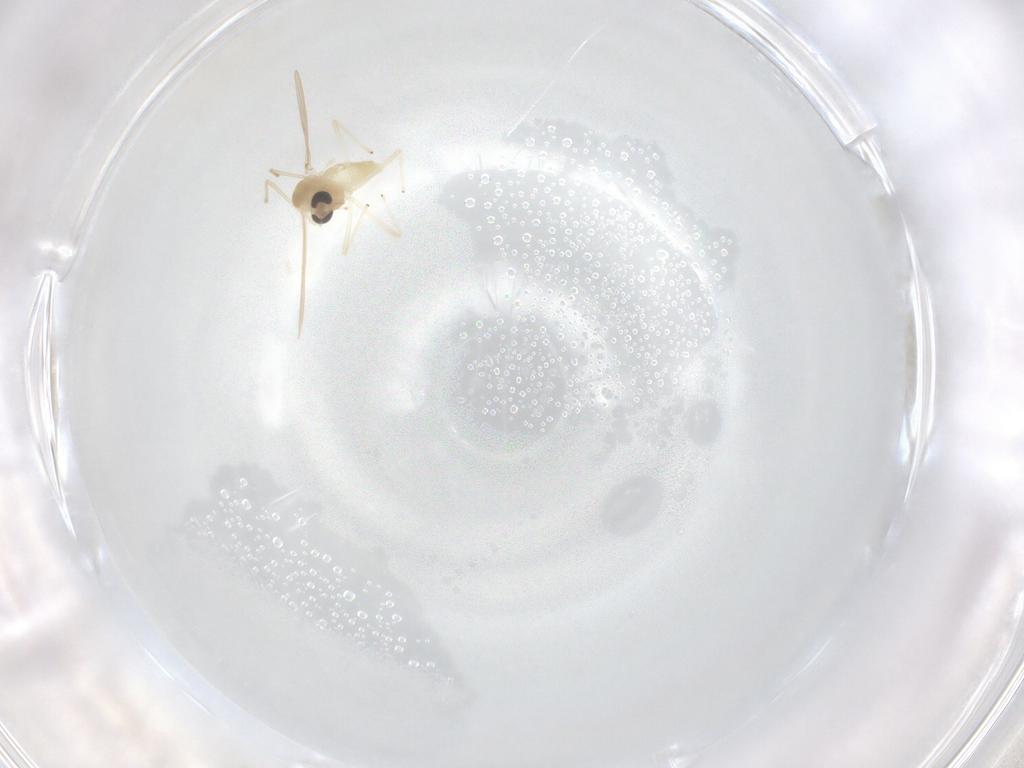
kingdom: Animalia
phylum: Arthropoda
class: Insecta
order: Diptera
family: Chironomidae
